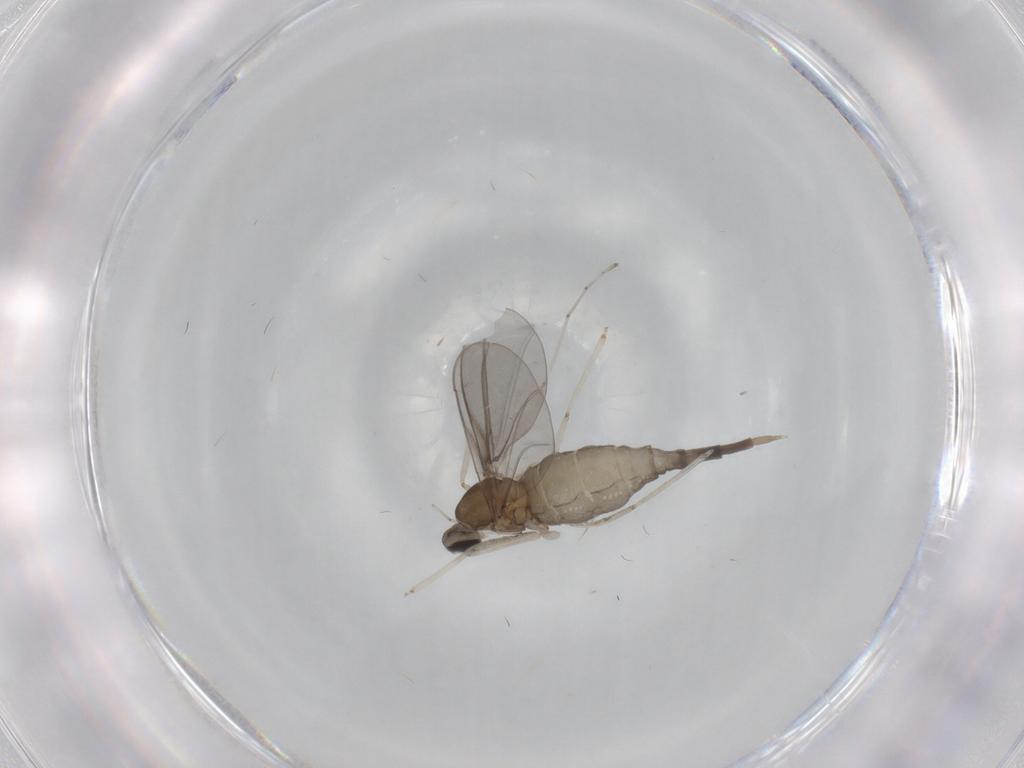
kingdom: Animalia
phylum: Arthropoda
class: Insecta
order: Diptera
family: Cecidomyiidae
